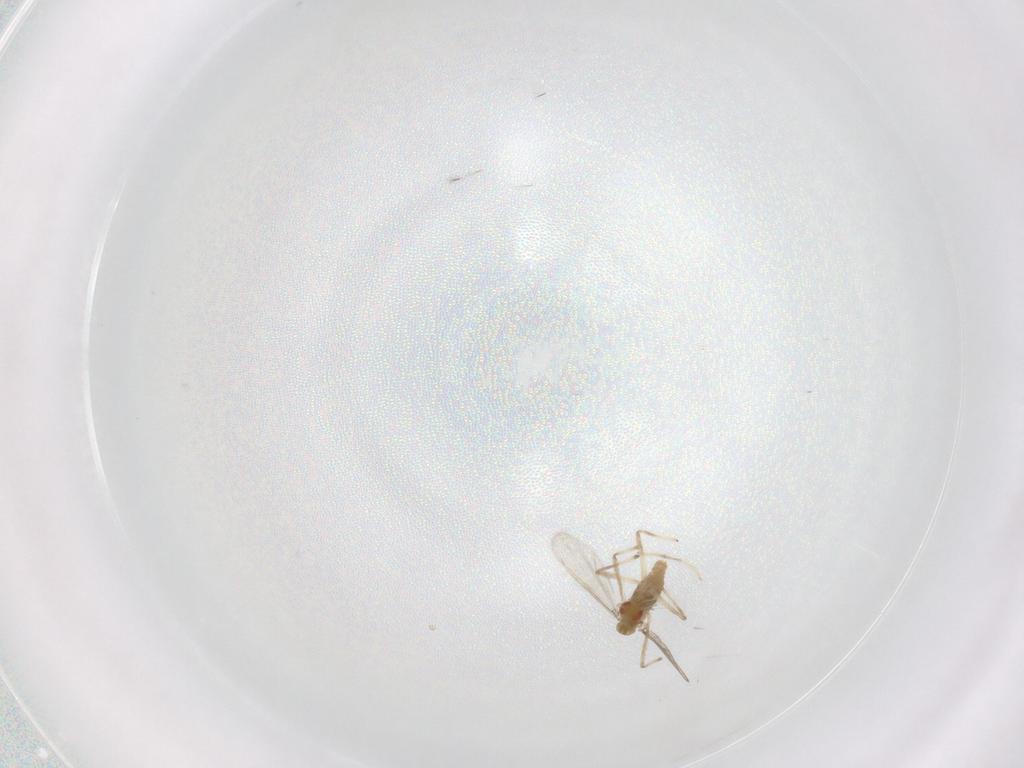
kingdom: Animalia
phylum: Arthropoda
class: Insecta
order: Diptera
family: Chironomidae
